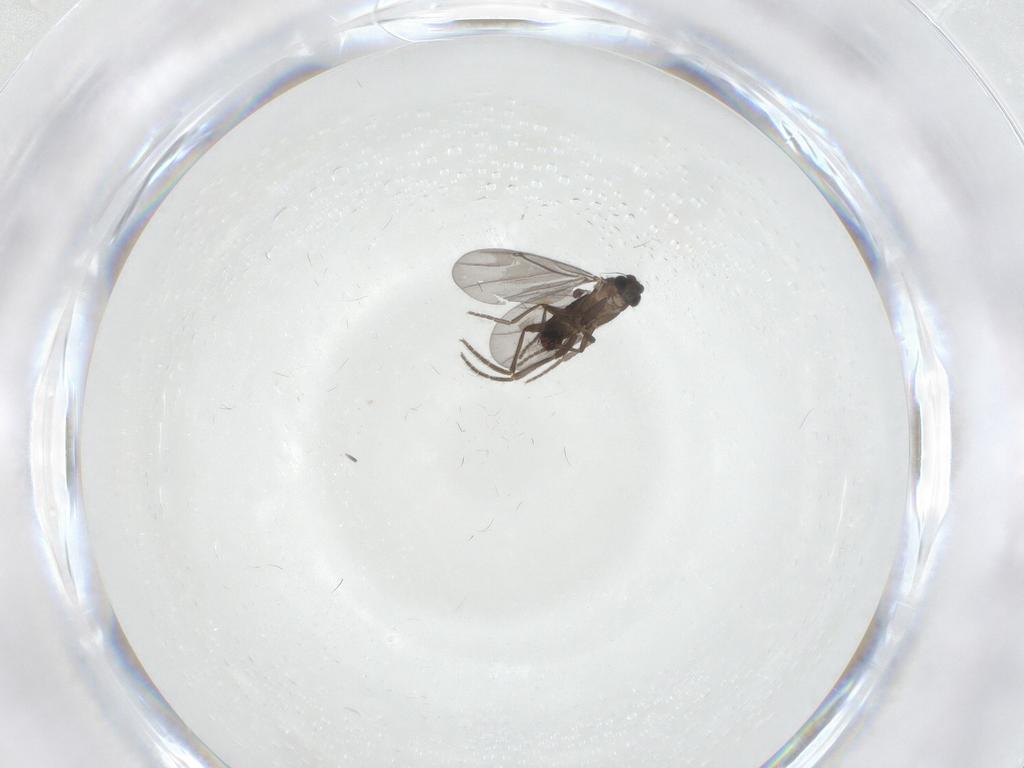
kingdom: Animalia
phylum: Arthropoda
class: Insecta
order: Diptera
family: Phoridae
